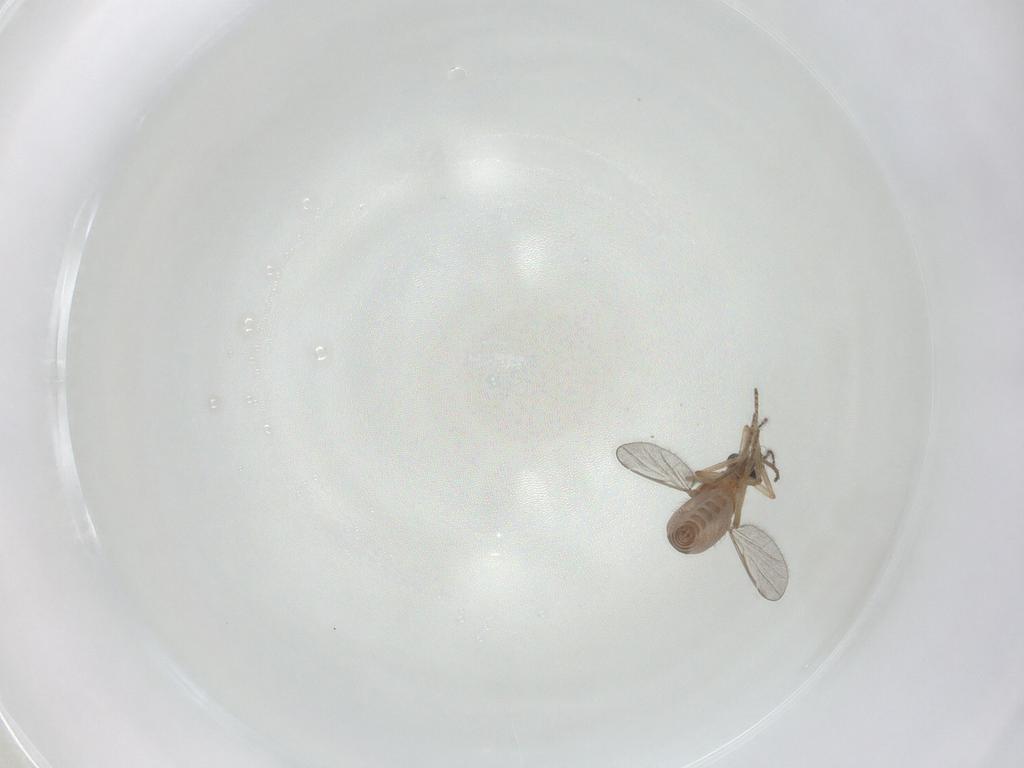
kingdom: Animalia
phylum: Arthropoda
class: Insecta
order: Diptera
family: Ceratopogonidae
